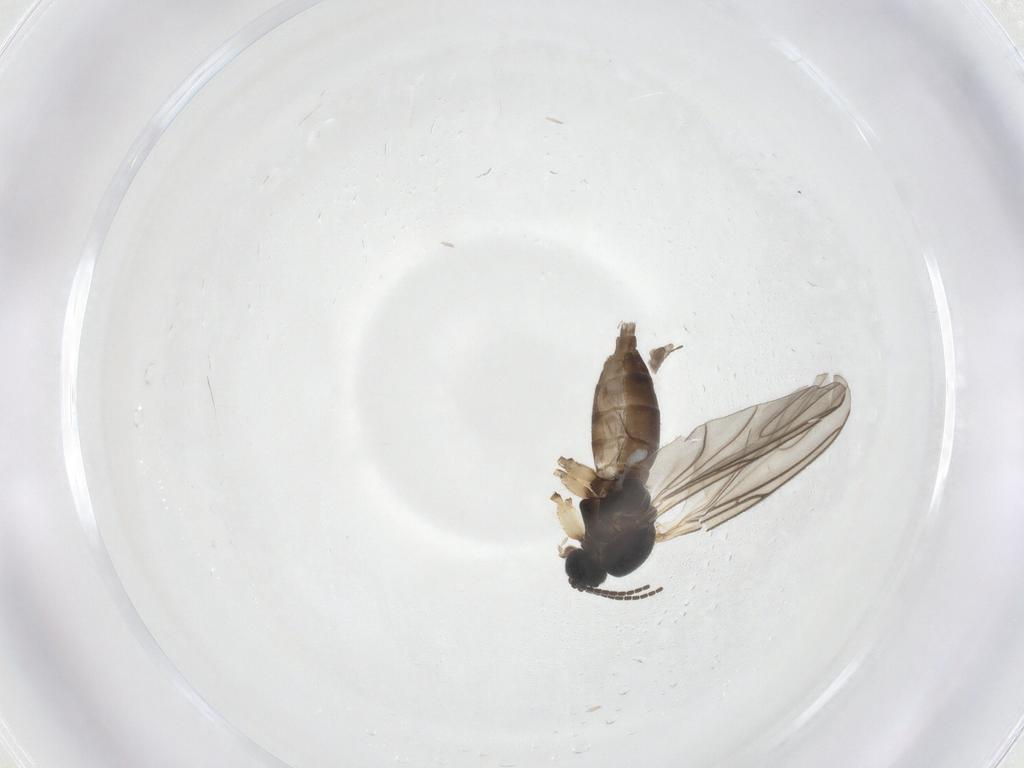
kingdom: Animalia
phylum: Arthropoda
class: Insecta
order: Diptera
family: Sciaridae
